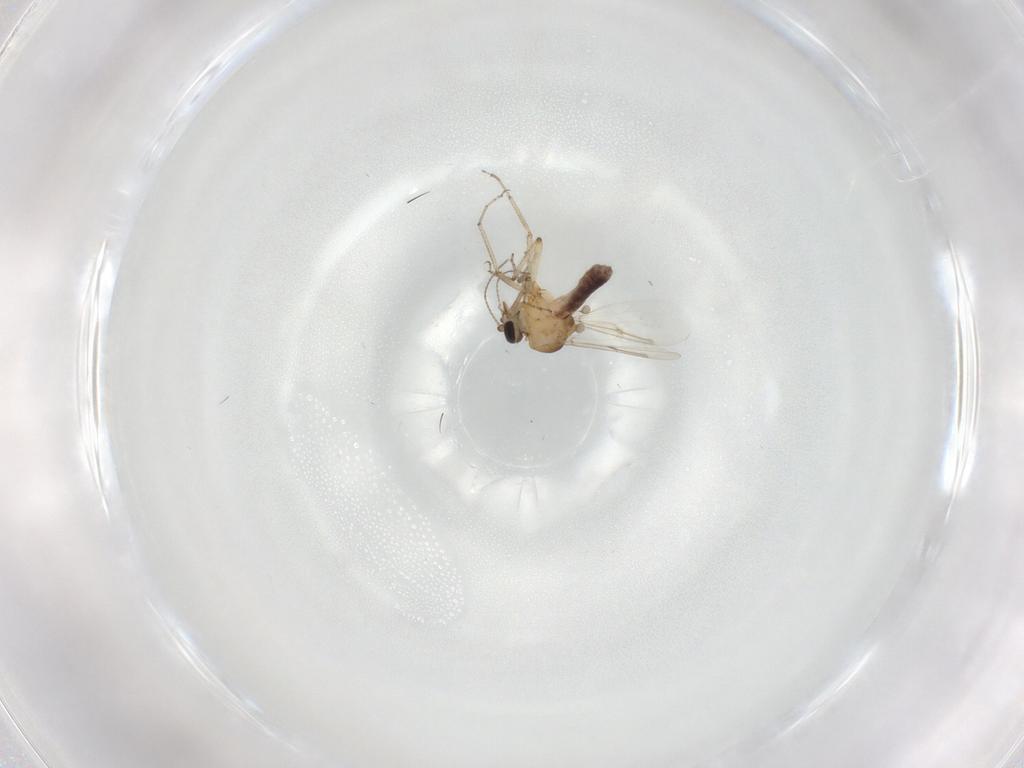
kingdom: Animalia
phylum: Arthropoda
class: Insecta
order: Diptera
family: Ceratopogonidae
